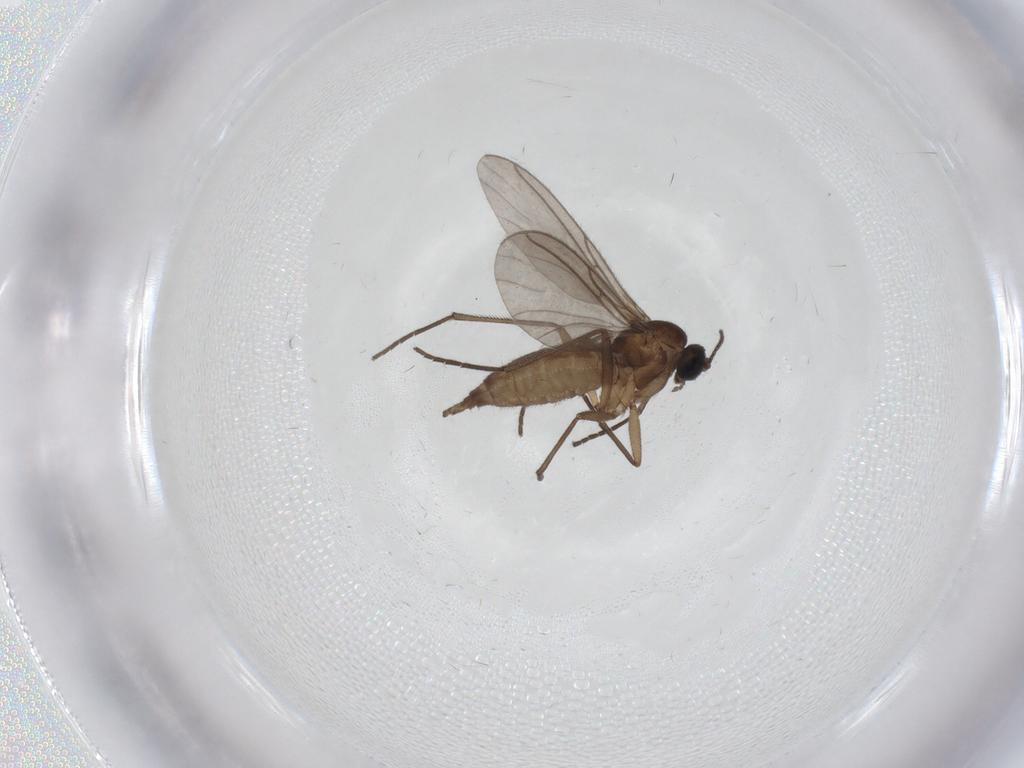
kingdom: Animalia
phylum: Arthropoda
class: Insecta
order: Diptera
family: Sciaridae
